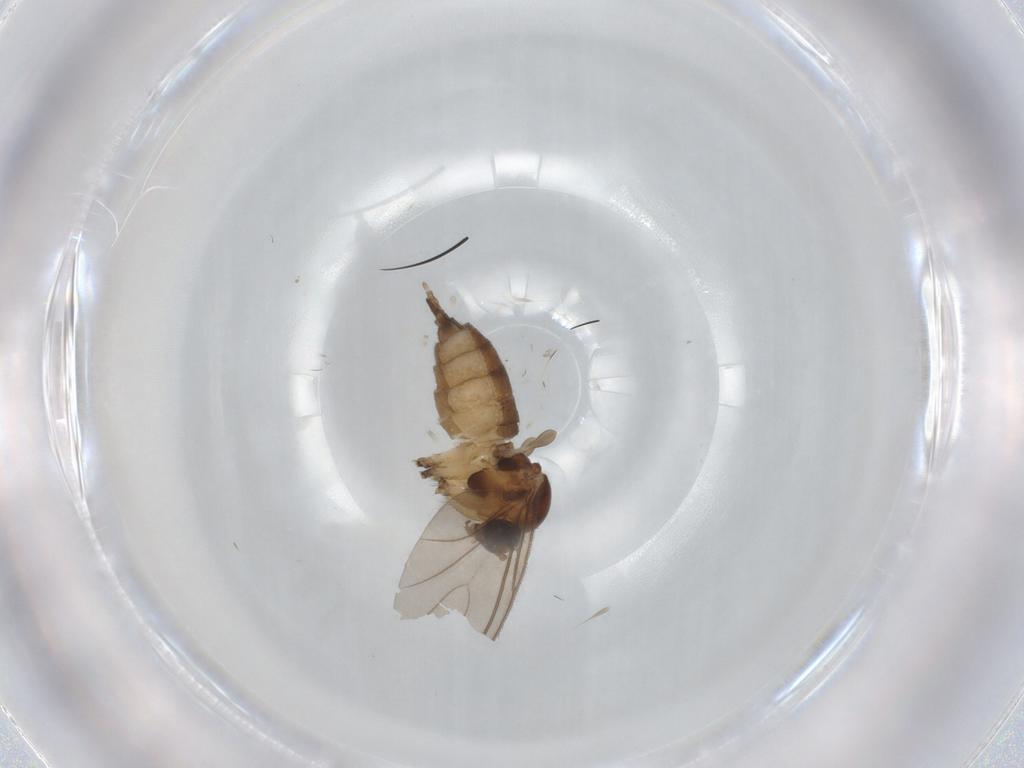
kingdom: Animalia
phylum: Arthropoda
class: Insecta
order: Diptera
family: Sciaridae
